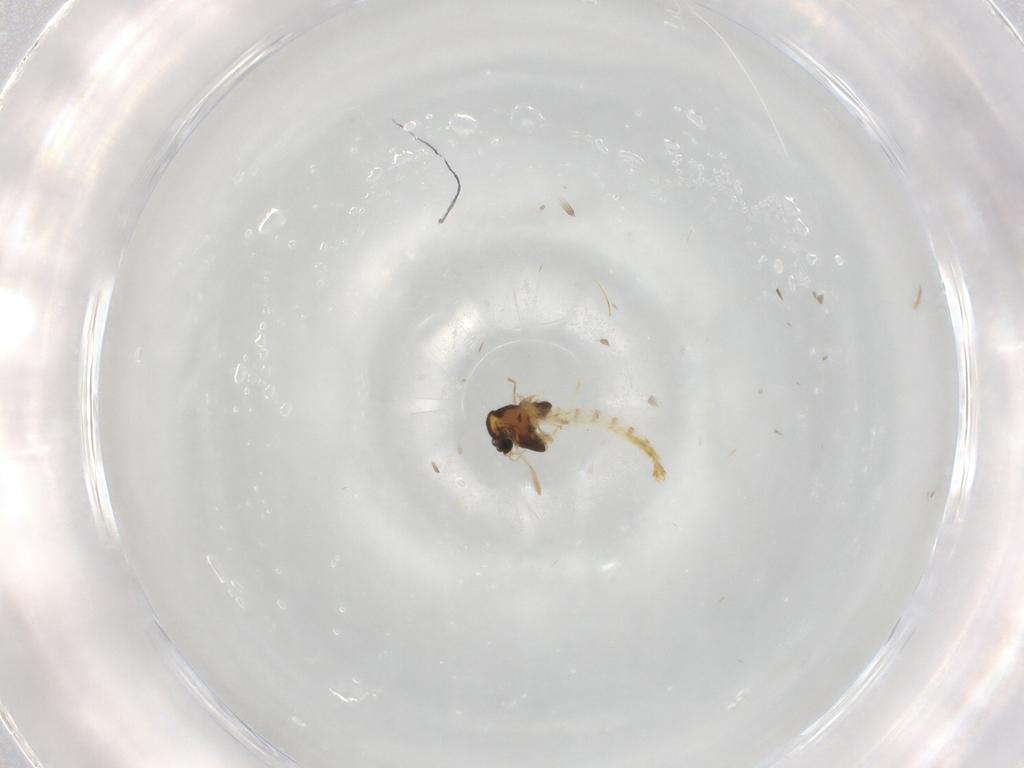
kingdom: Animalia
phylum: Arthropoda
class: Insecta
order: Diptera
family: Chironomidae
